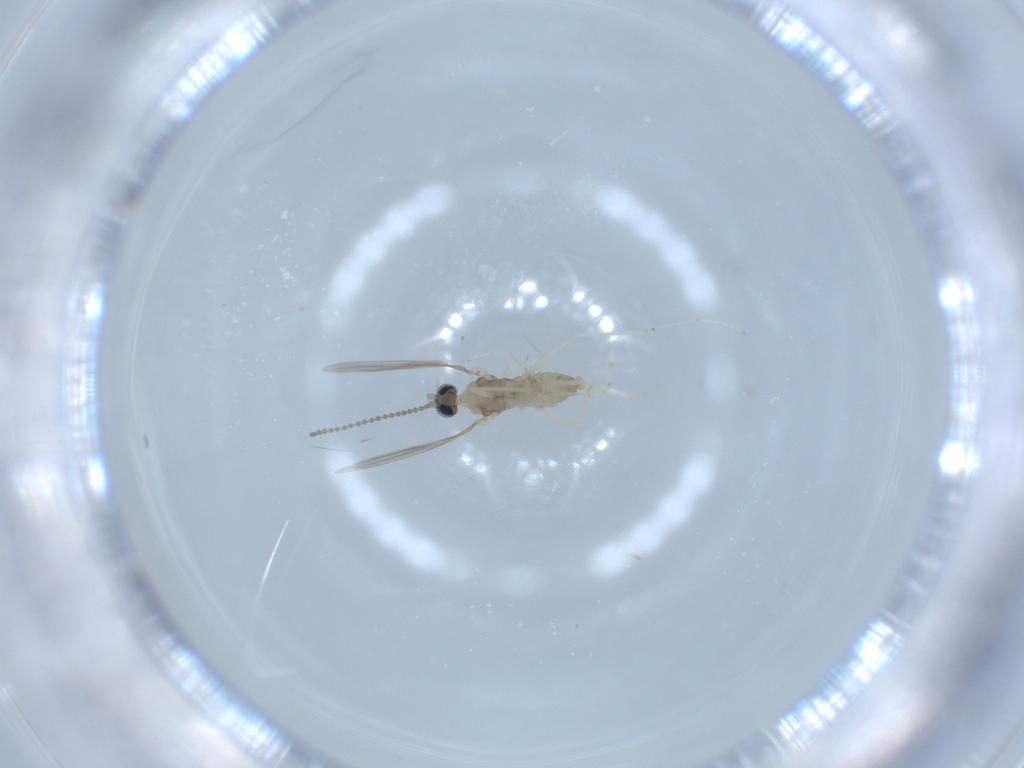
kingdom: Animalia
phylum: Arthropoda
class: Insecta
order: Diptera
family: Cecidomyiidae
